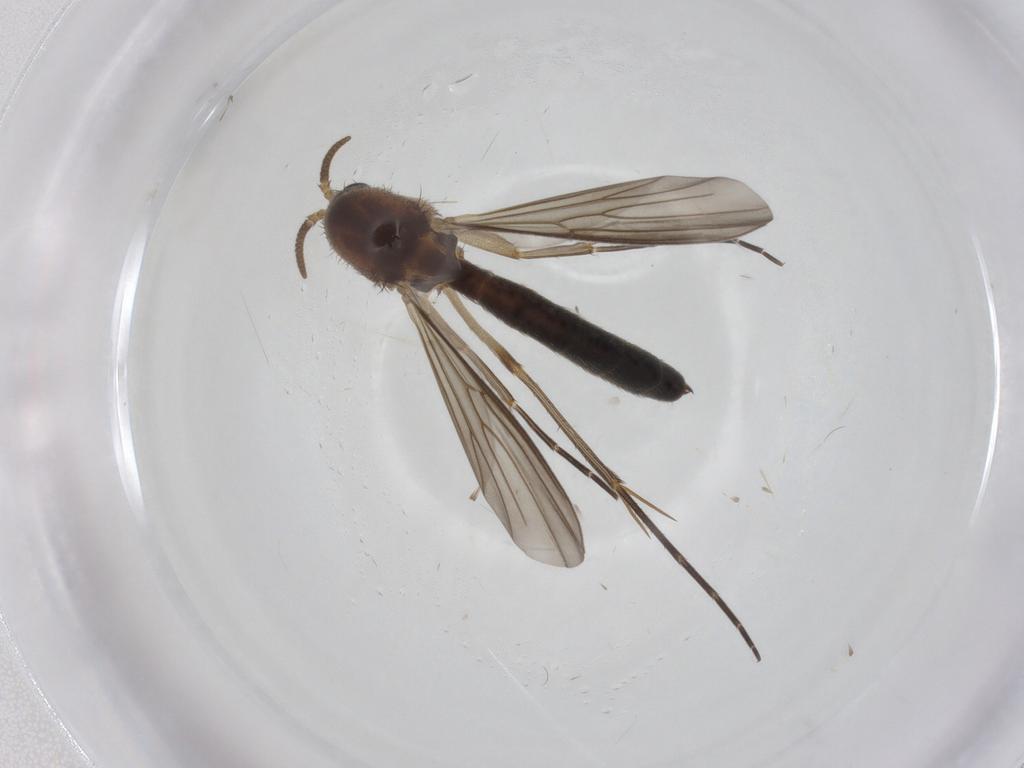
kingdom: Animalia
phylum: Arthropoda
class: Insecta
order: Diptera
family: Mycetophilidae
